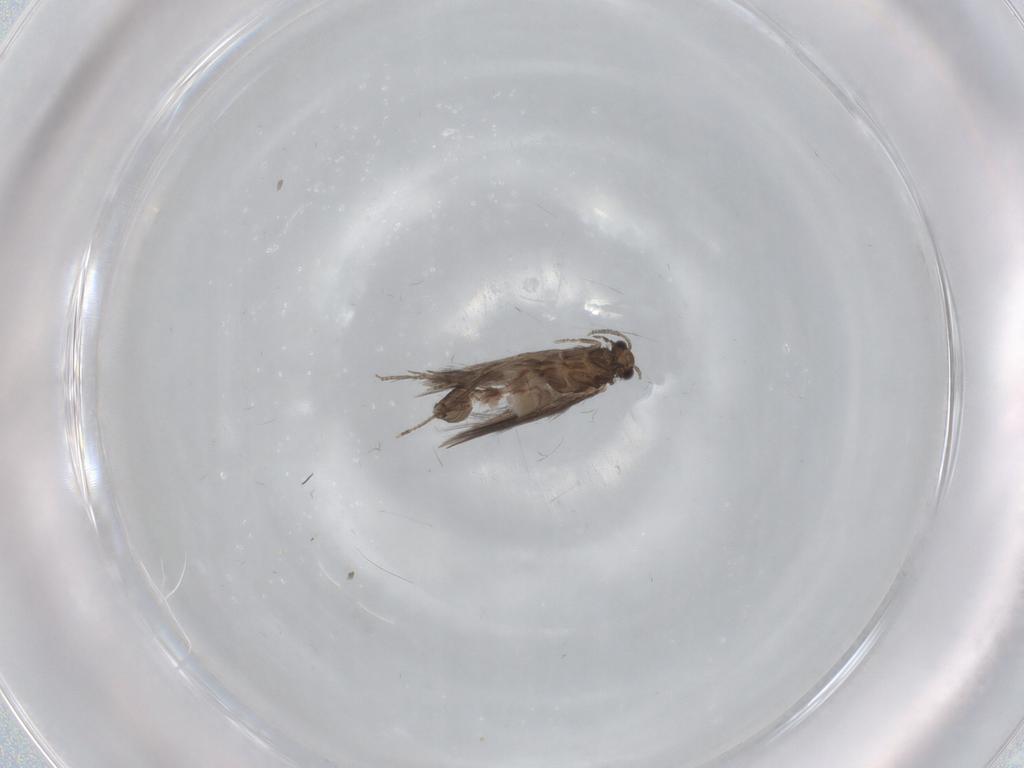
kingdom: Animalia
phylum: Arthropoda
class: Insecta
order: Trichoptera
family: Hydroptilidae
